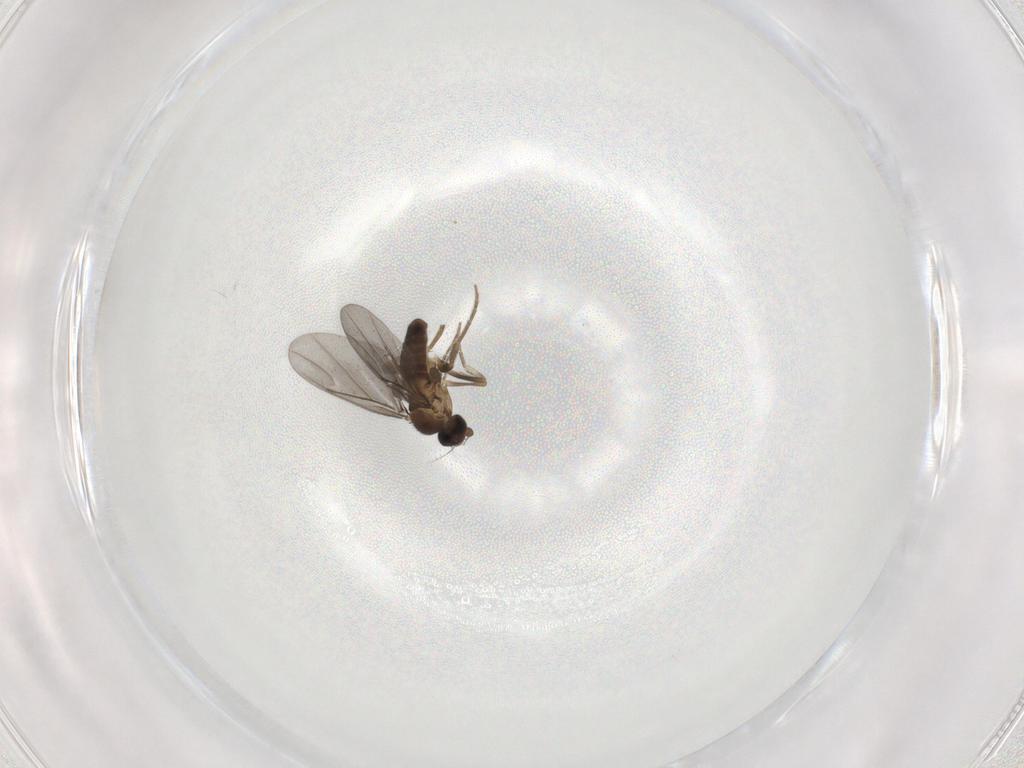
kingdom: Animalia
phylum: Arthropoda
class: Insecta
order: Diptera
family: Phoridae
